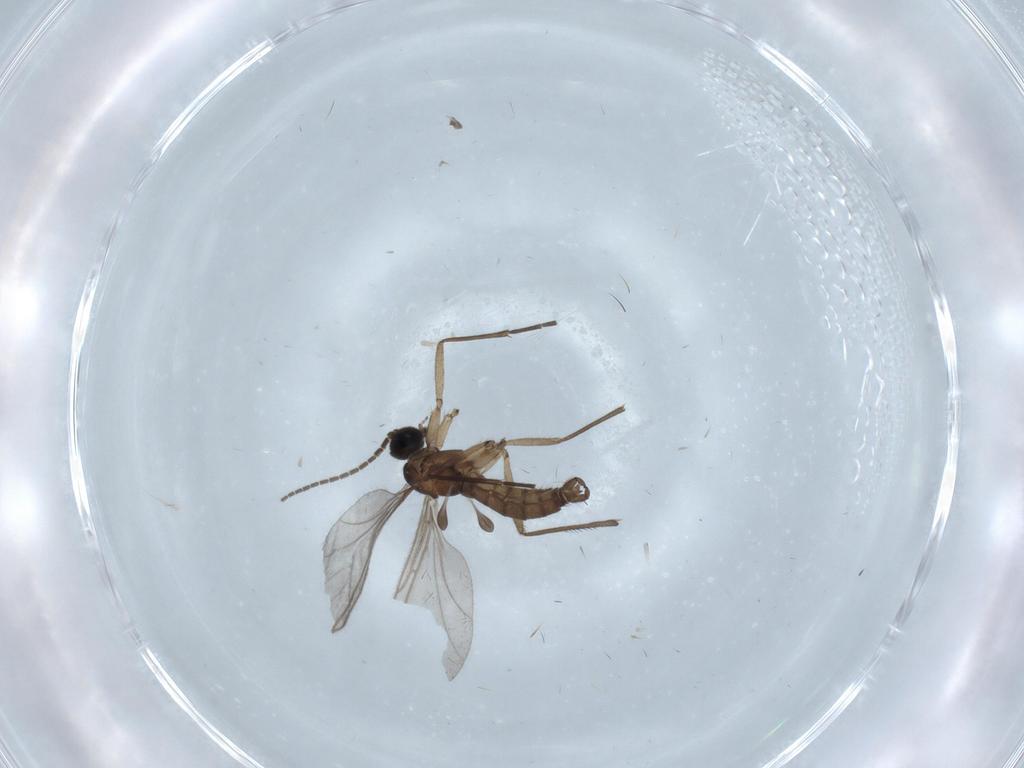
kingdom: Animalia
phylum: Arthropoda
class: Insecta
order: Diptera
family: Sciaridae
